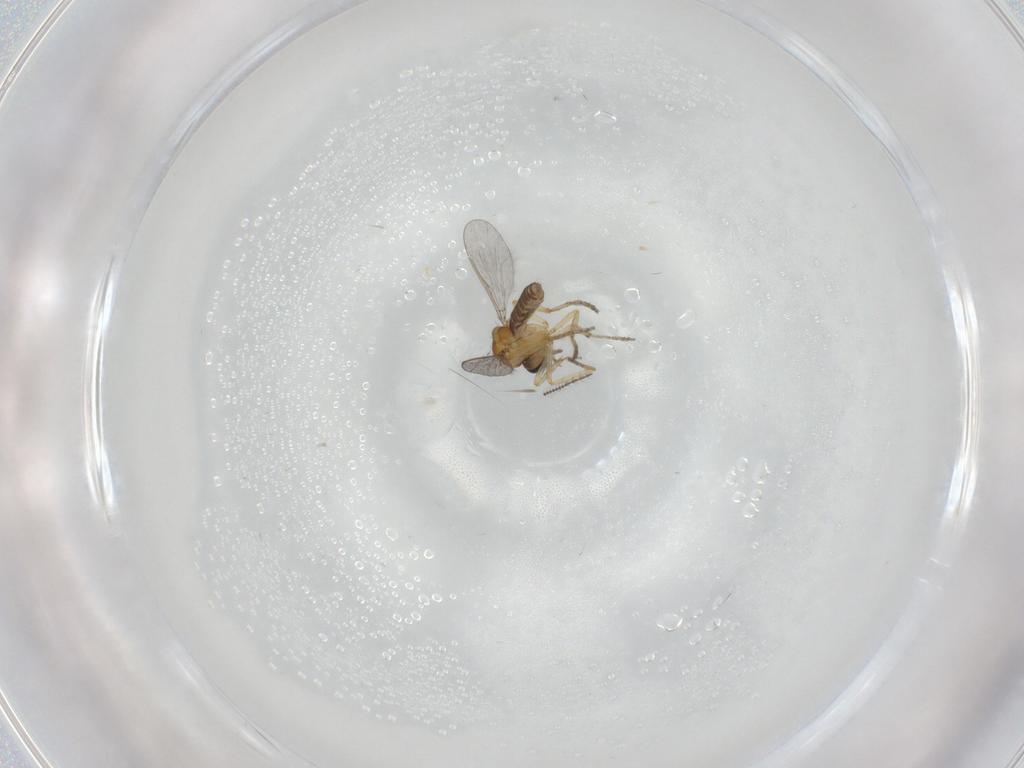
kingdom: Animalia
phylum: Arthropoda
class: Insecta
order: Diptera
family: Ceratopogonidae
